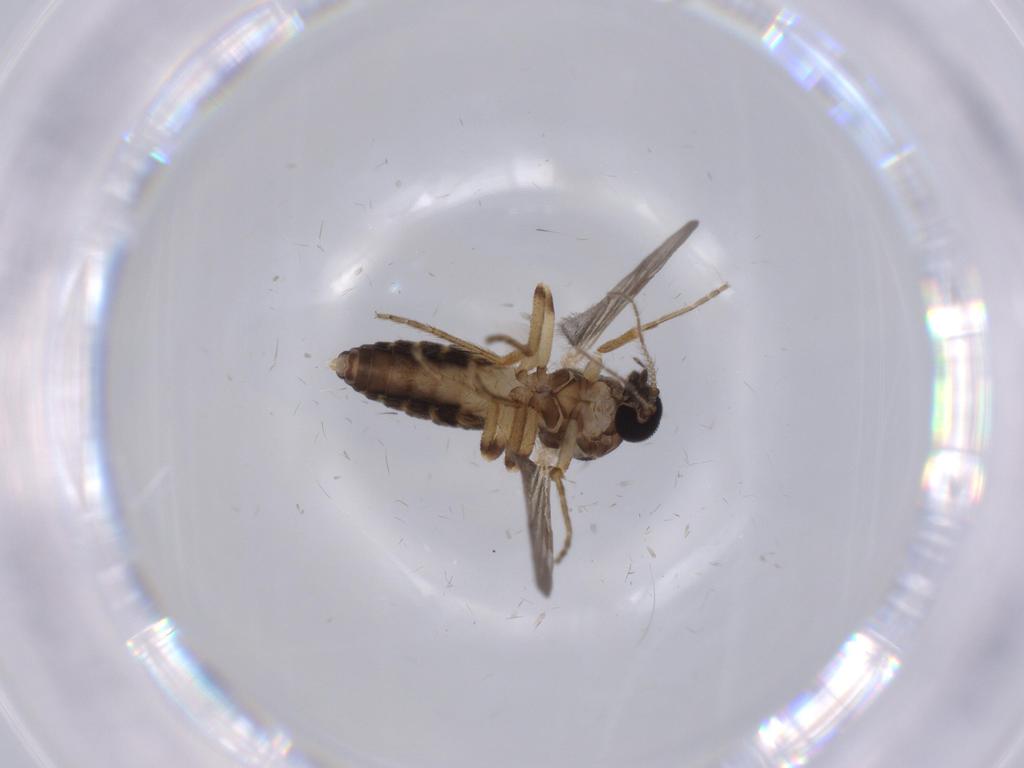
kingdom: Animalia
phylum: Arthropoda
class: Insecta
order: Diptera
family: Ceratopogonidae
